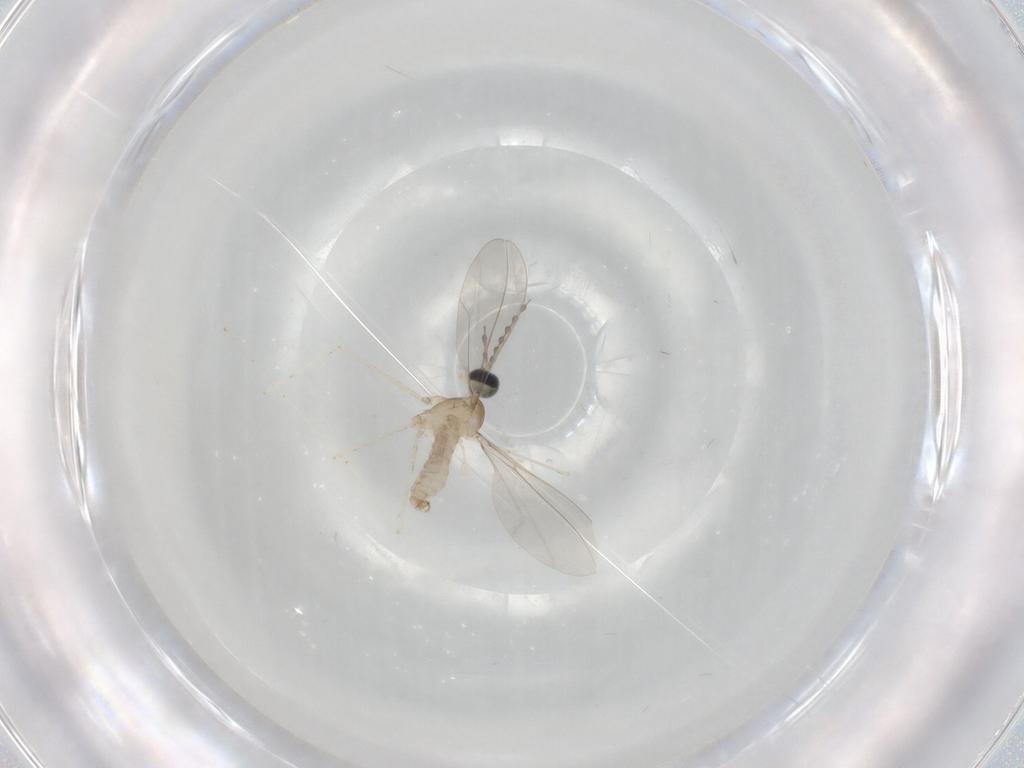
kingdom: Animalia
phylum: Arthropoda
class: Insecta
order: Diptera
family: Cecidomyiidae
